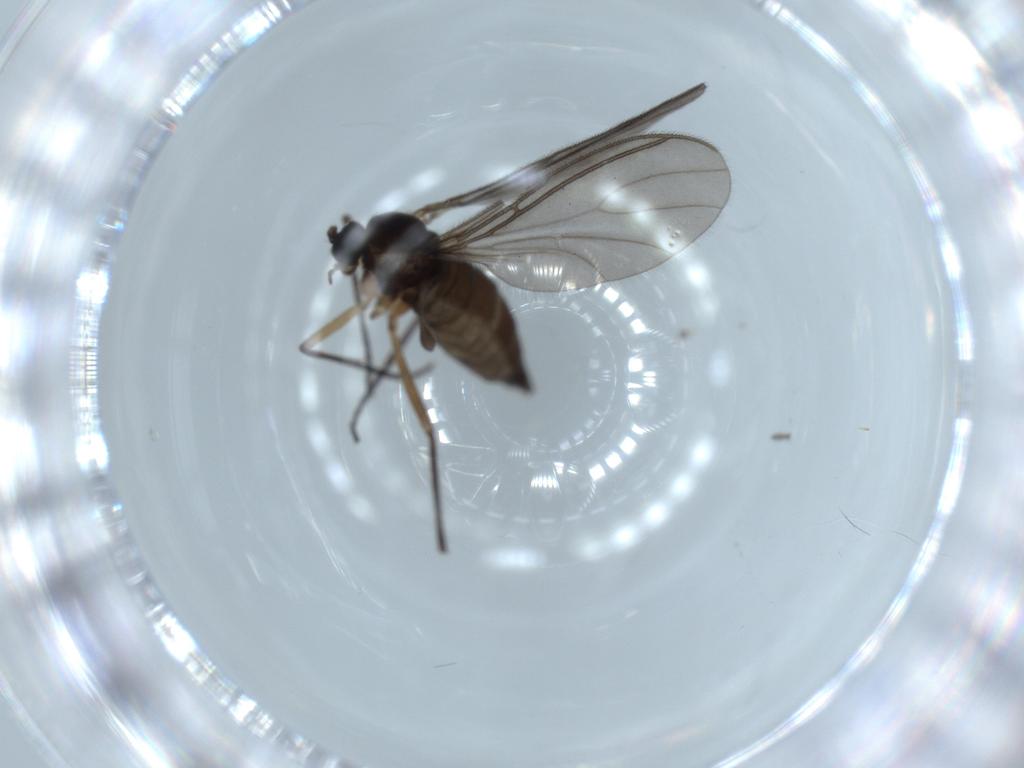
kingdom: Animalia
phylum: Arthropoda
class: Insecta
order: Diptera
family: Sciaridae
